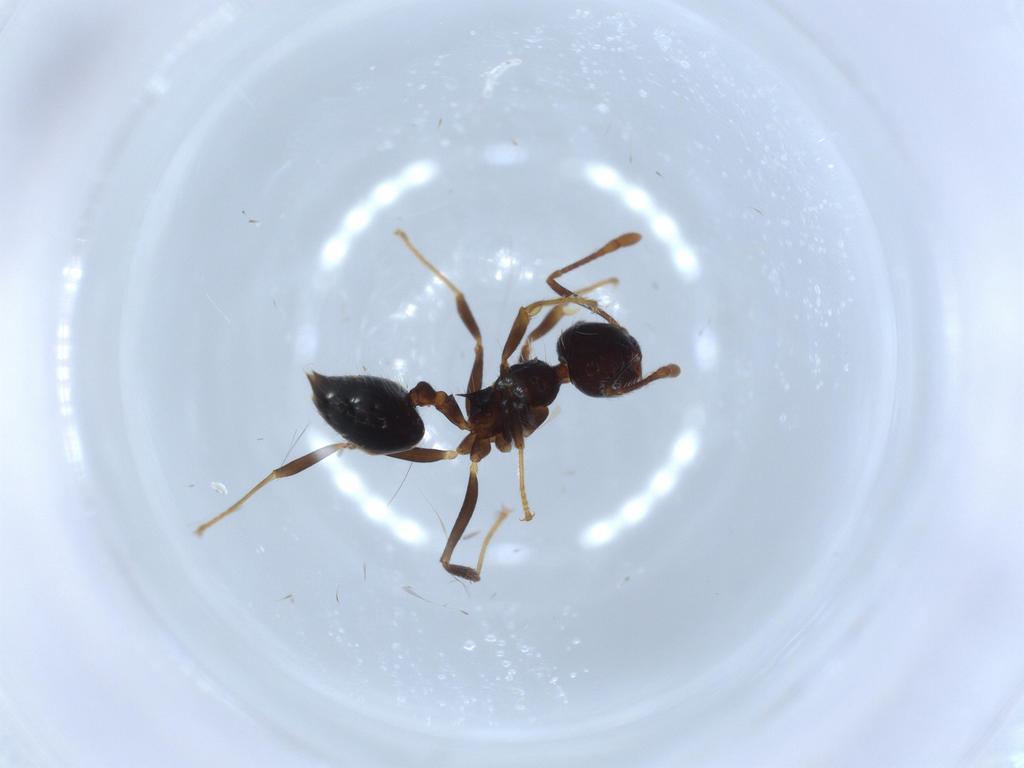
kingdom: Animalia
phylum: Arthropoda
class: Insecta
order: Hymenoptera
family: Formicidae
